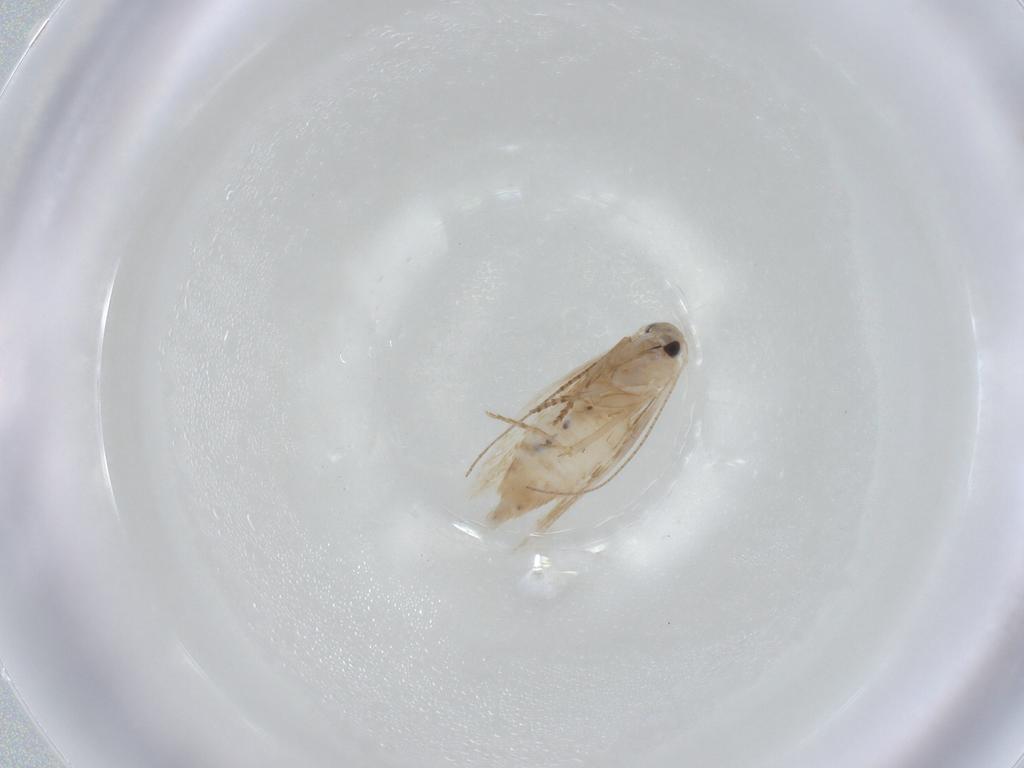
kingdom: Animalia
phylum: Arthropoda
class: Insecta
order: Lepidoptera
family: Bucculatricidae
